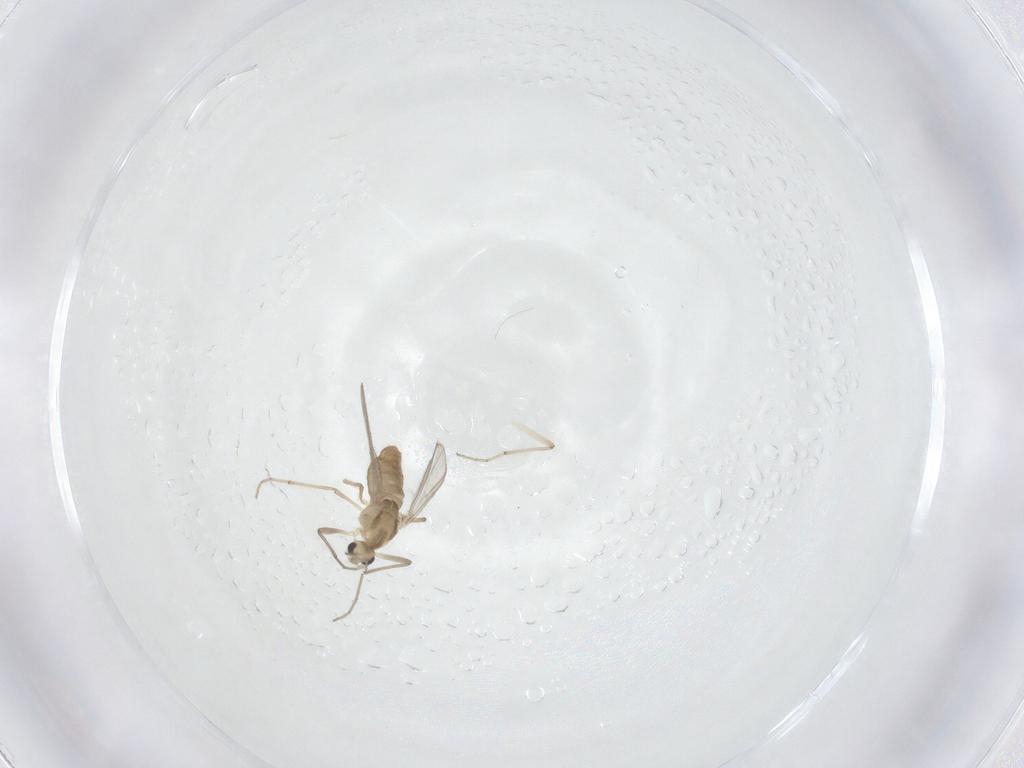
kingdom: Animalia
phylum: Arthropoda
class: Insecta
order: Diptera
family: Chironomidae
